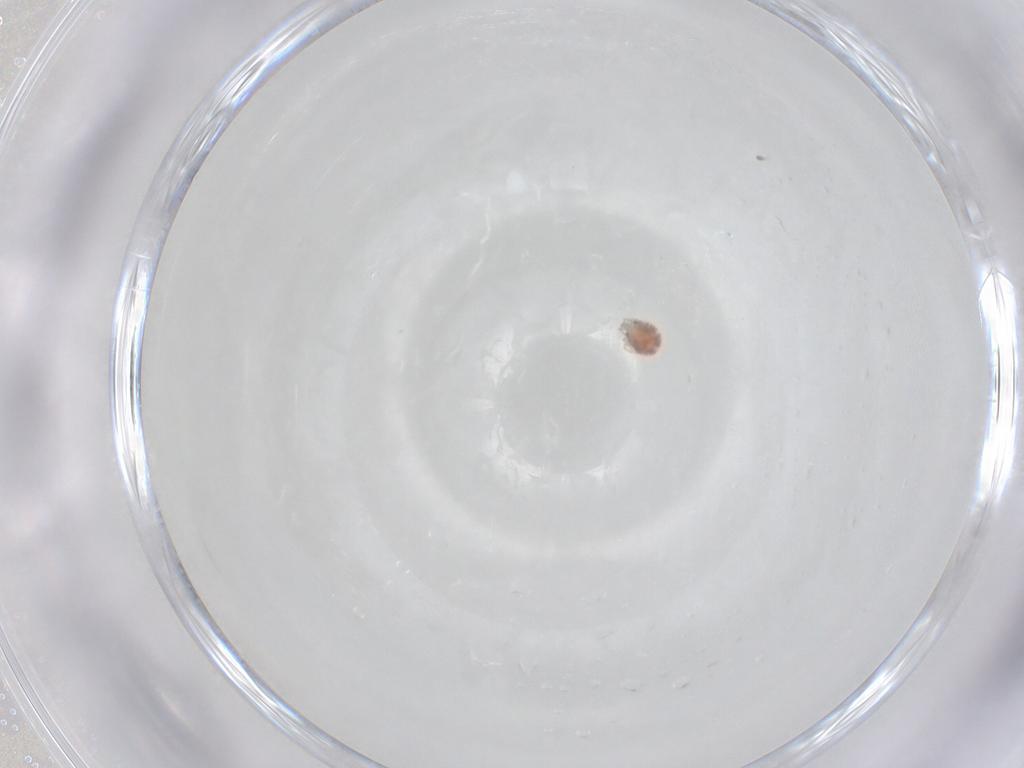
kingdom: Animalia
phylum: Arthropoda
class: Arachnida
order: Trombidiformes
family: Pionidae
